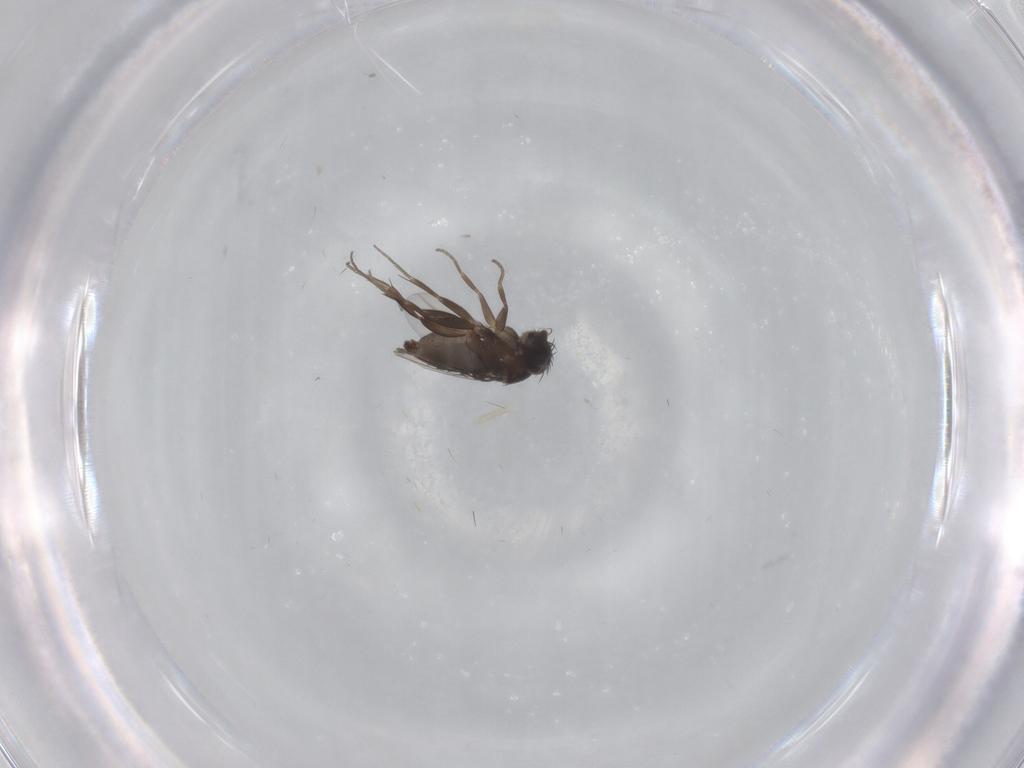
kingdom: Animalia
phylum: Arthropoda
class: Insecta
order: Diptera
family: Phoridae
